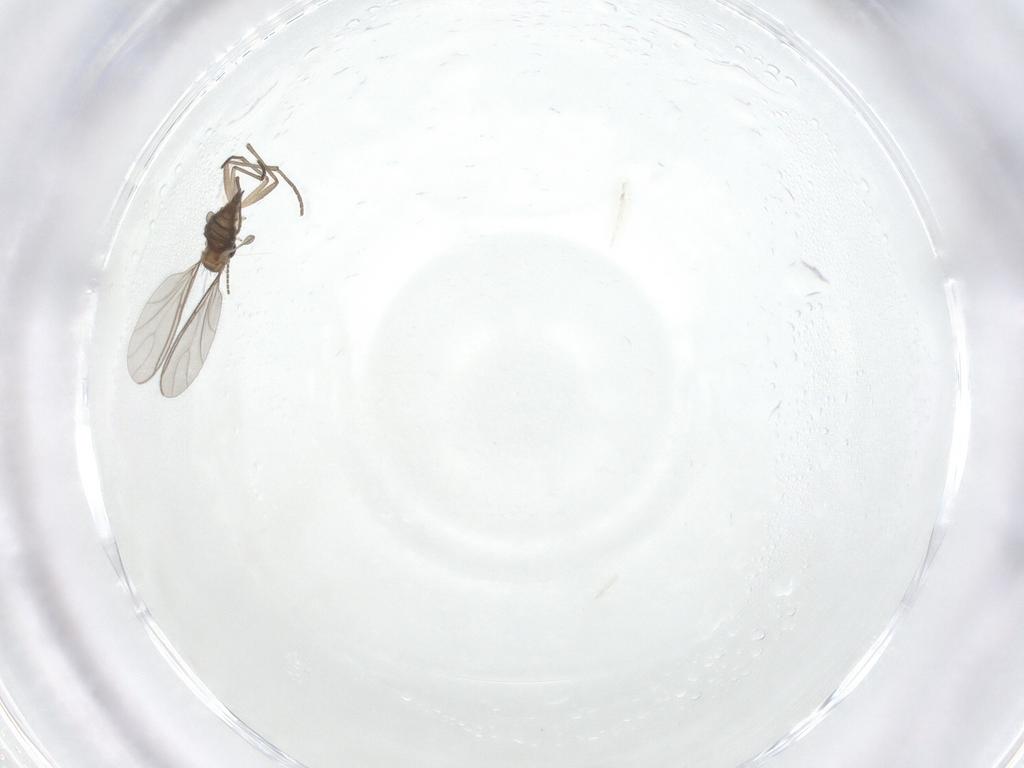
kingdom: Animalia
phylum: Arthropoda
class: Insecta
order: Diptera
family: Sciaridae
